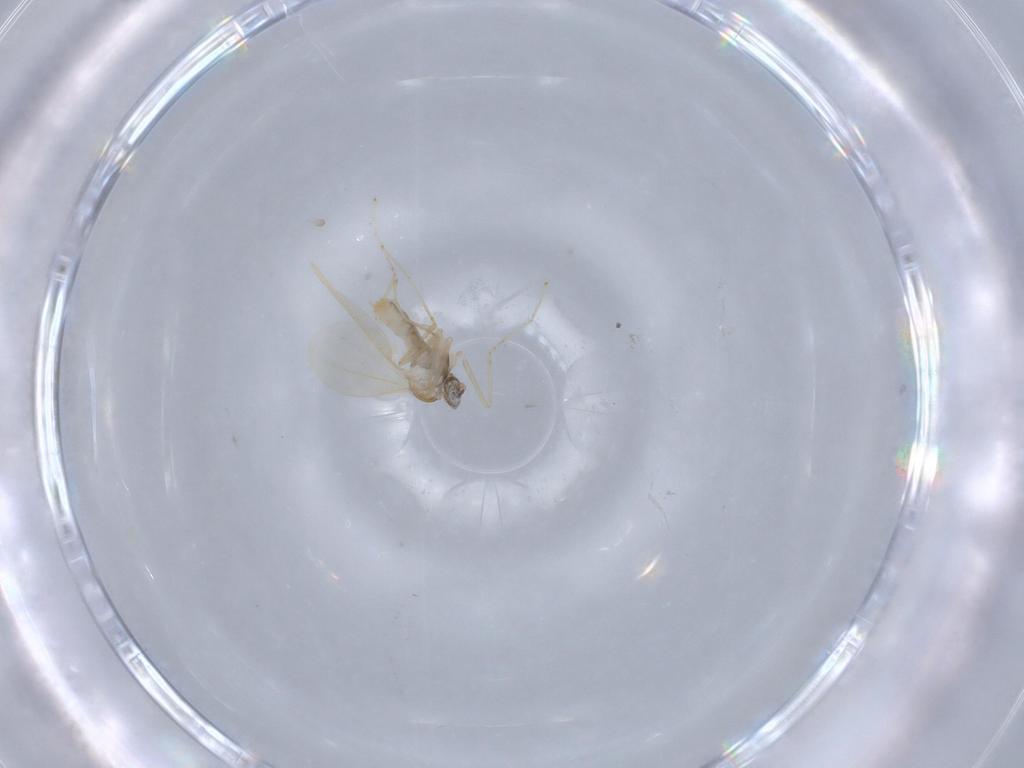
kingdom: Animalia
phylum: Arthropoda
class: Insecta
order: Diptera
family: Cecidomyiidae
